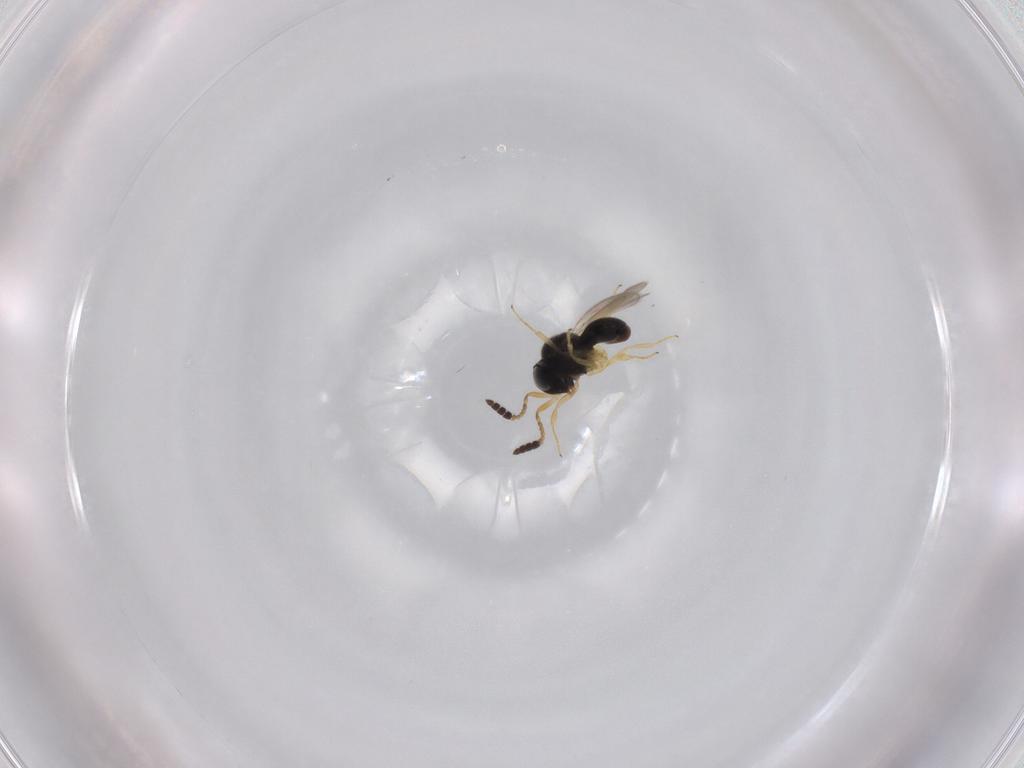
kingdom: Animalia
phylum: Arthropoda
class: Insecta
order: Hymenoptera
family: Scelionidae
